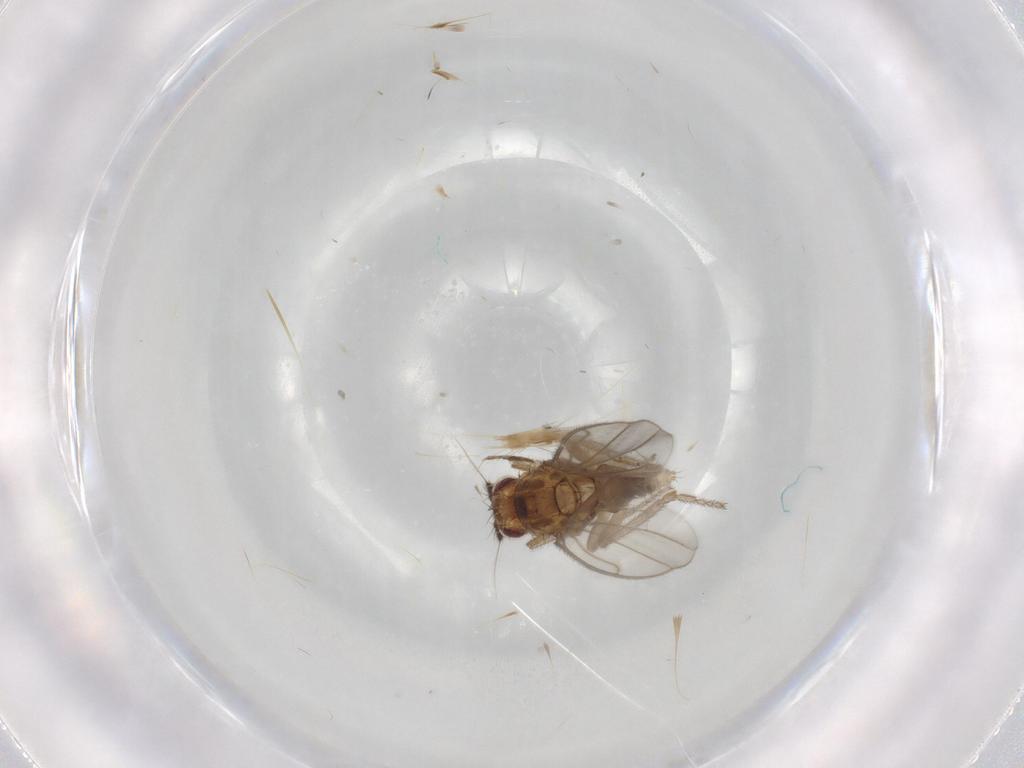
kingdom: Animalia
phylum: Arthropoda
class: Insecta
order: Diptera
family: Sphaeroceridae
